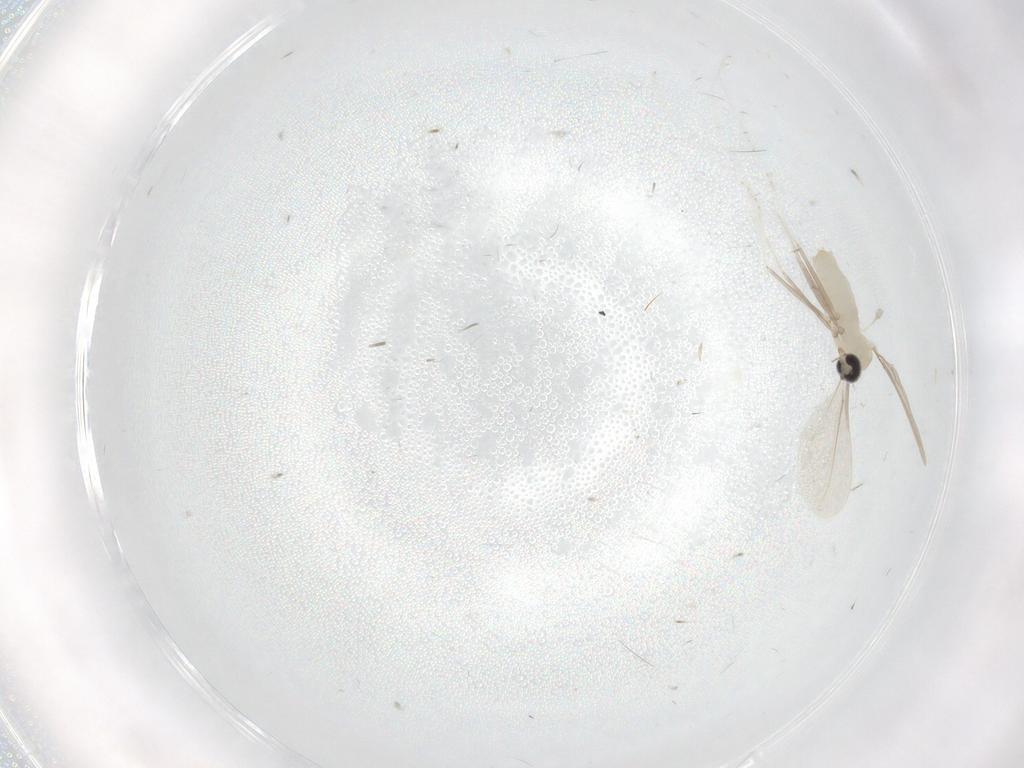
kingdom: Animalia
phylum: Arthropoda
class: Insecta
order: Diptera
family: Cecidomyiidae
